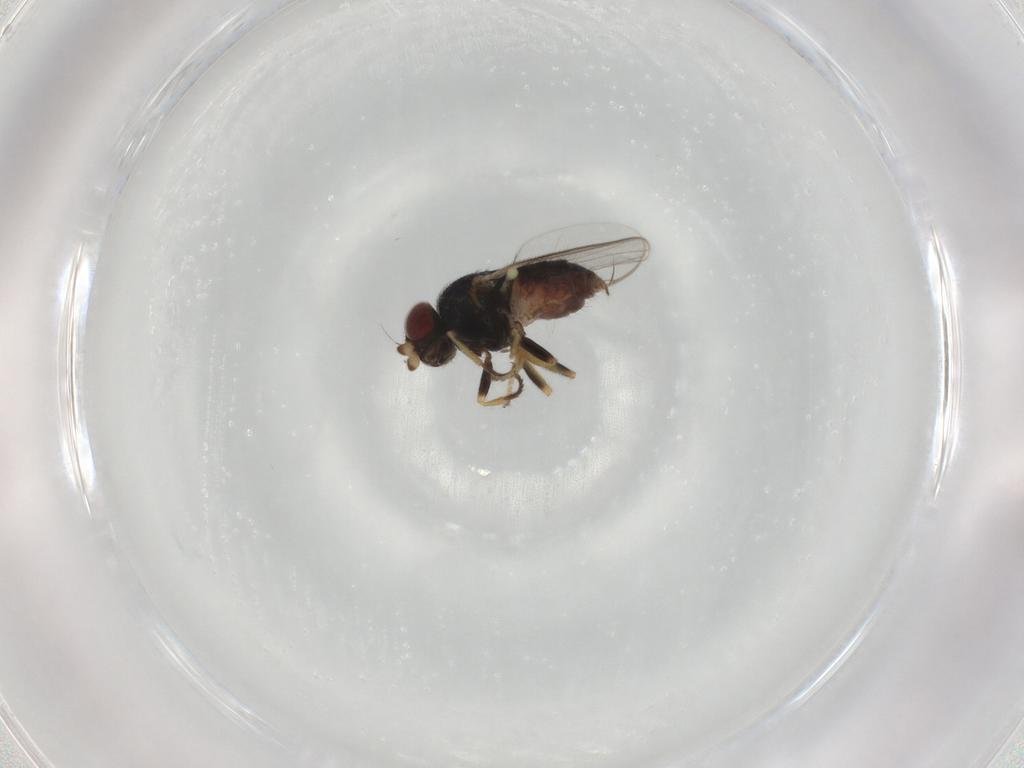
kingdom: Animalia
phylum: Arthropoda
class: Insecta
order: Diptera
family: Chloropidae
